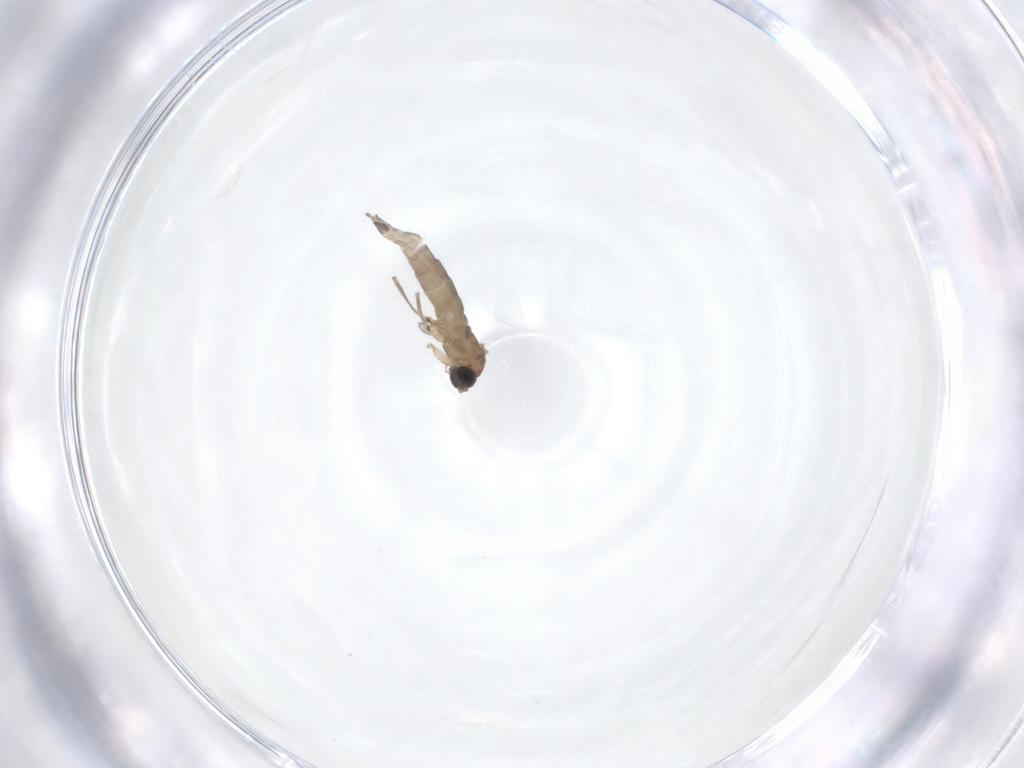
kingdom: Animalia
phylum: Arthropoda
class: Insecta
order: Diptera
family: Sciaridae
